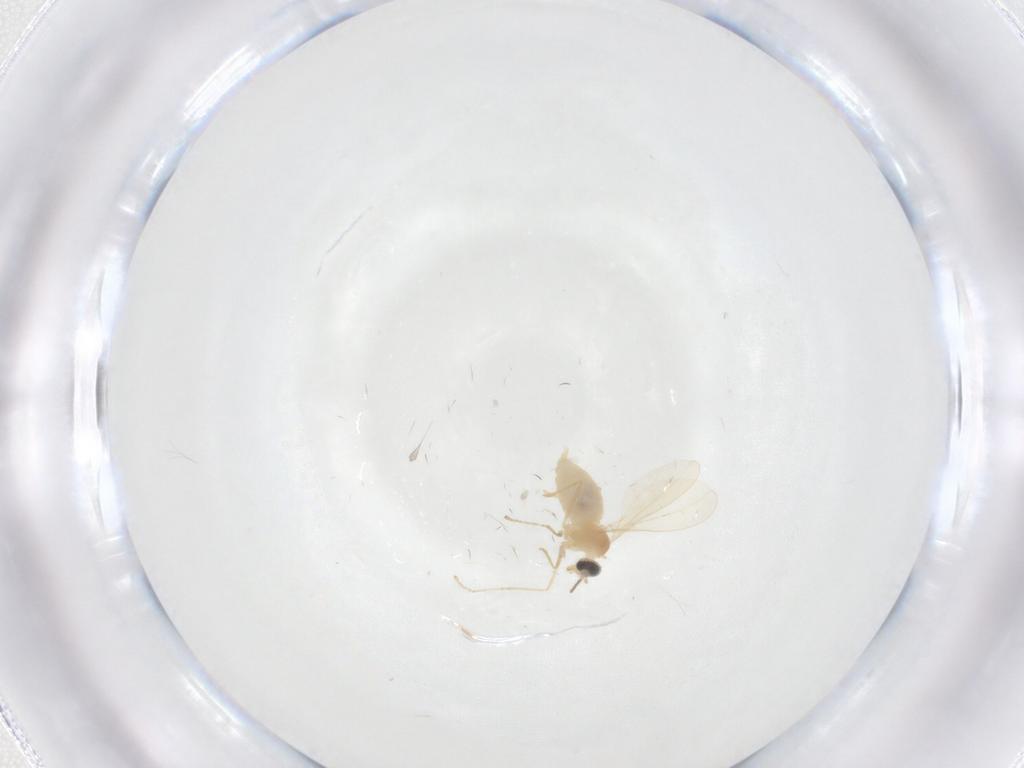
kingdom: Animalia
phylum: Arthropoda
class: Insecta
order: Diptera
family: Cecidomyiidae
